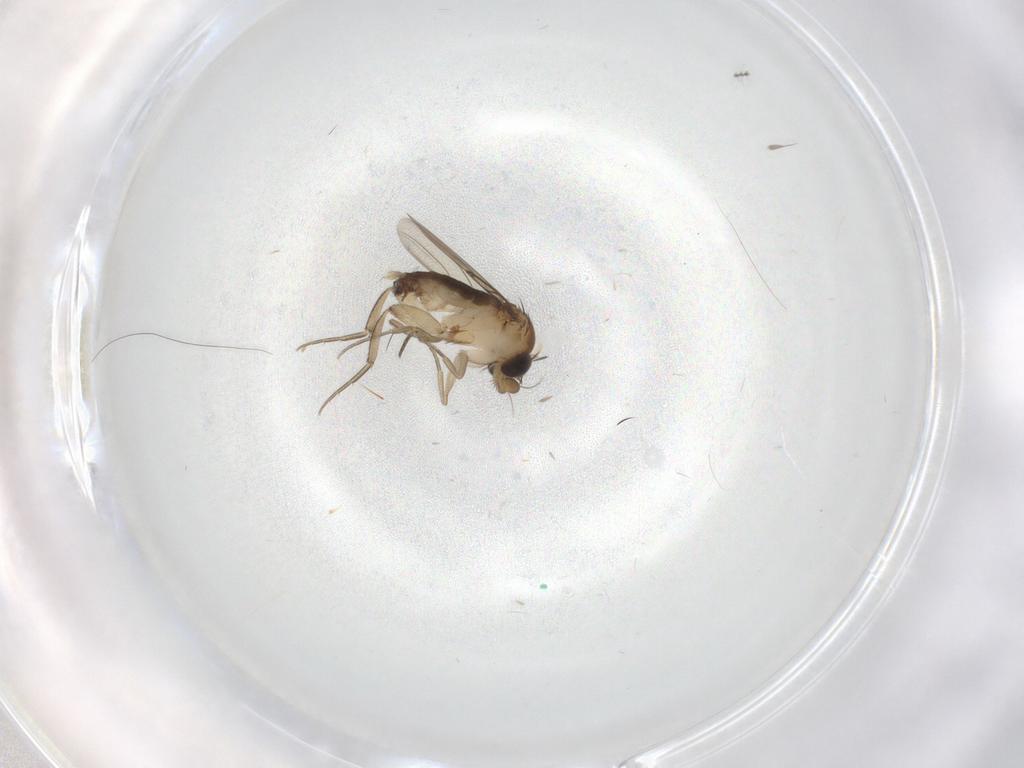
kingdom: Animalia
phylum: Arthropoda
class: Insecta
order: Diptera
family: Phoridae
